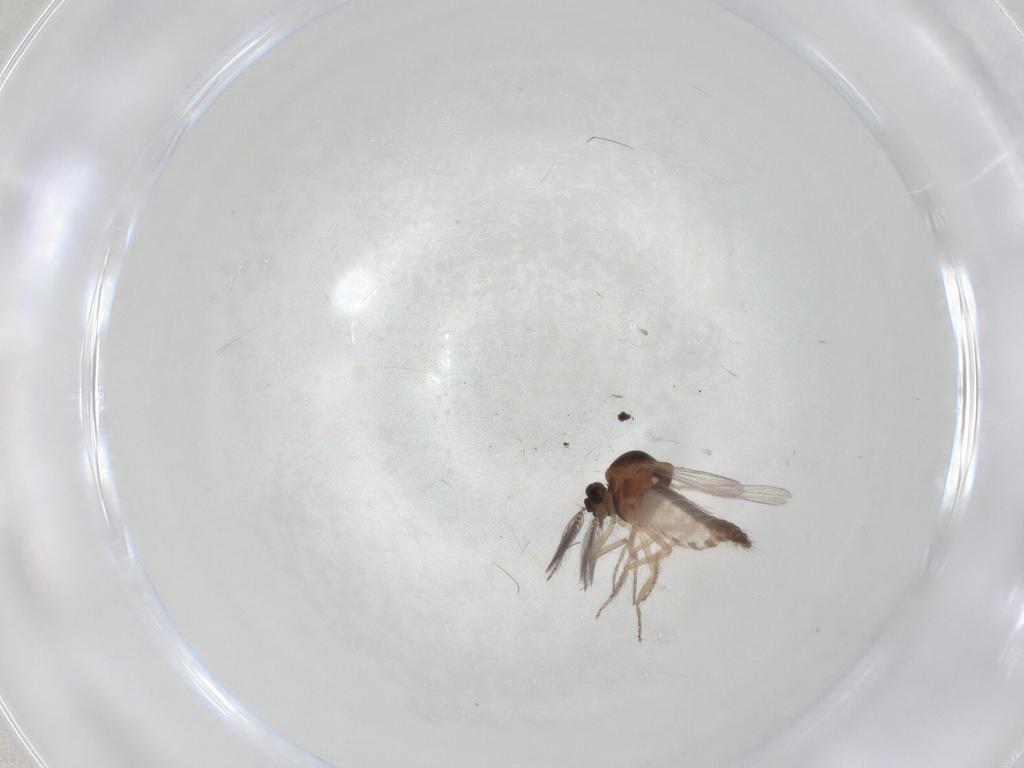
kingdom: Animalia
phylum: Arthropoda
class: Insecta
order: Diptera
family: Ceratopogonidae
